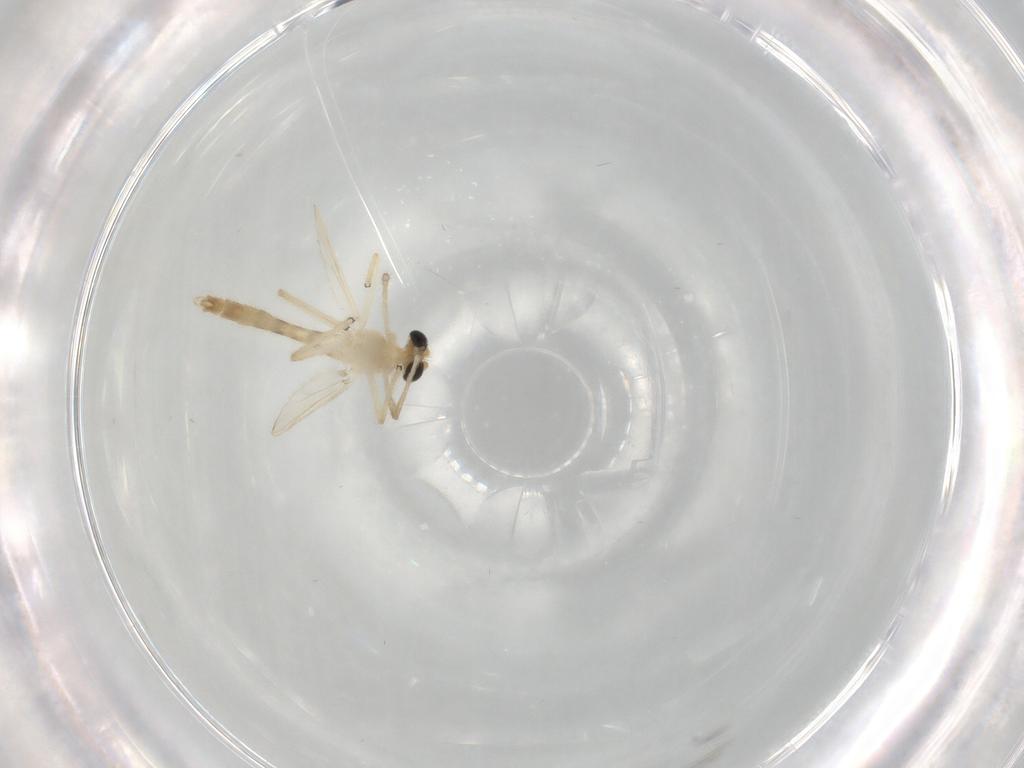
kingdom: Animalia
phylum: Arthropoda
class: Insecta
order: Diptera
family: Chironomidae
